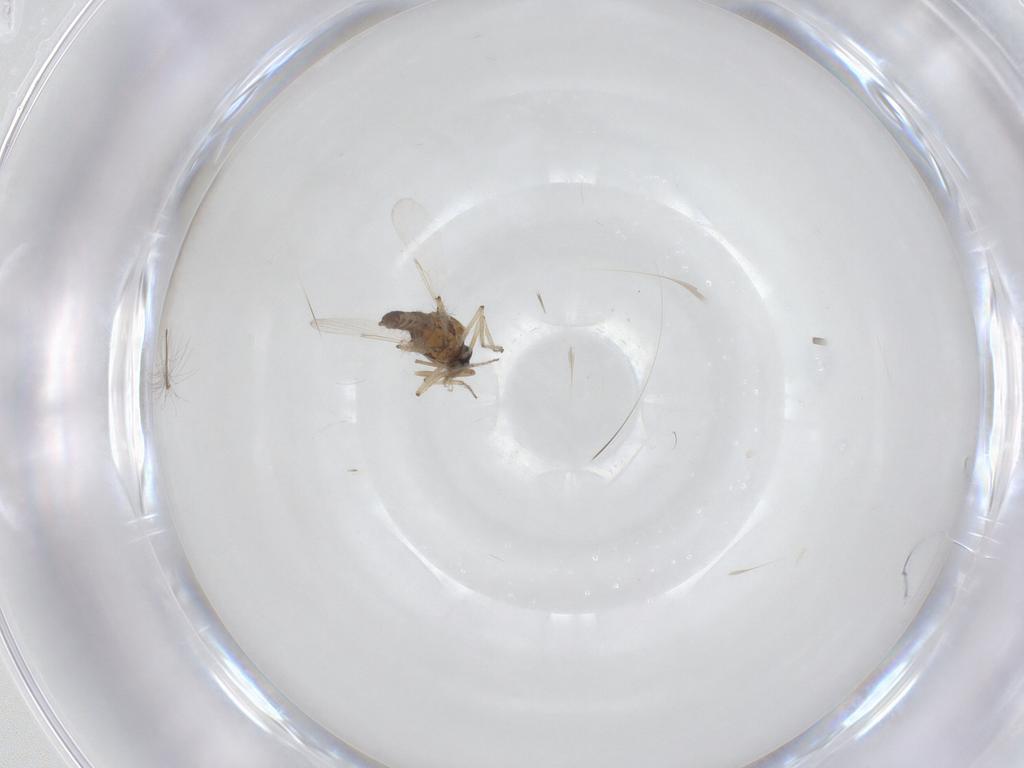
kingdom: Animalia
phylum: Arthropoda
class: Insecta
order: Diptera
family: Ceratopogonidae
